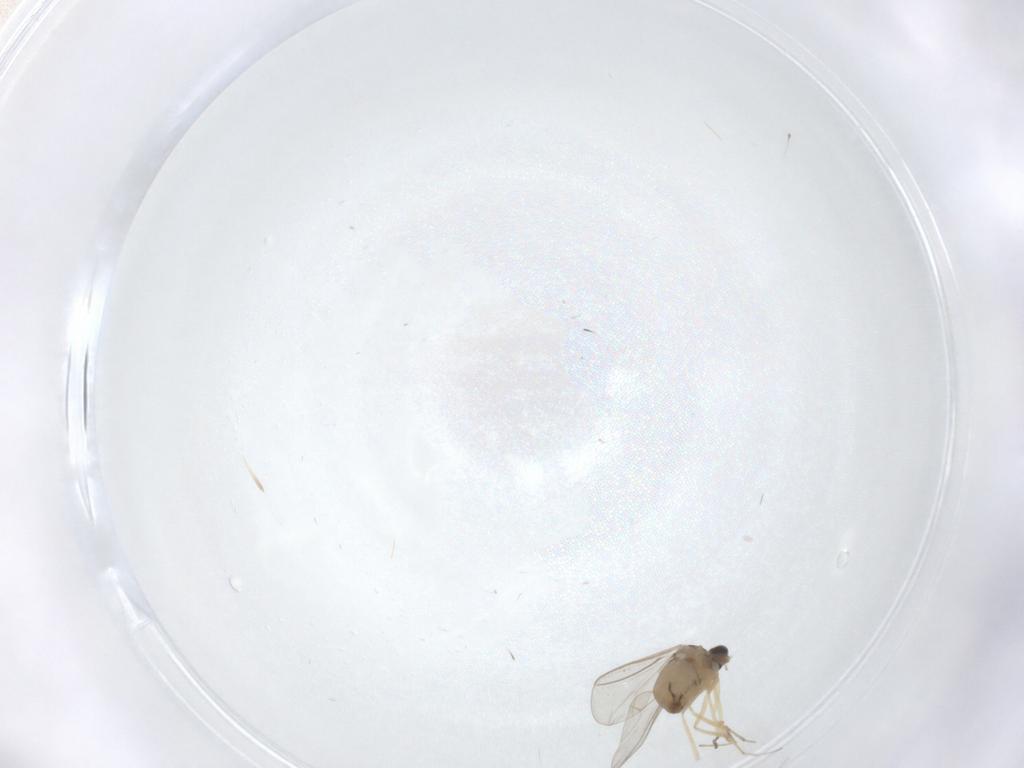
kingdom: Animalia
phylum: Arthropoda
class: Insecta
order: Diptera
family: Cecidomyiidae
